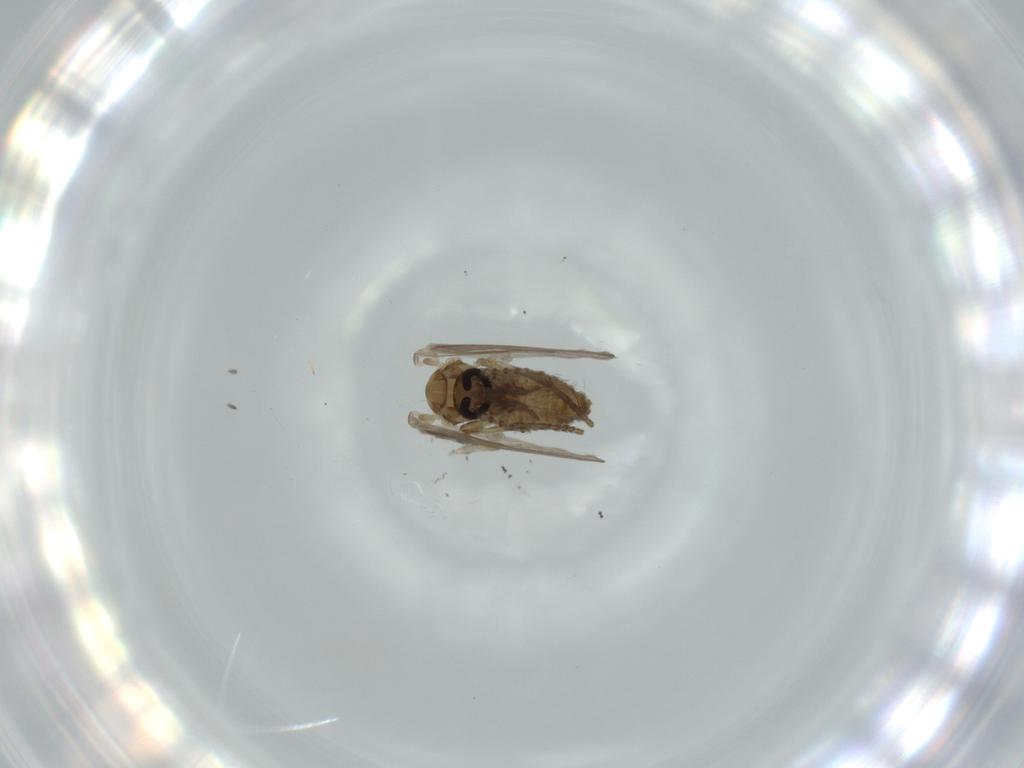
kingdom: Animalia
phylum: Arthropoda
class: Insecta
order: Diptera
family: Psychodidae
